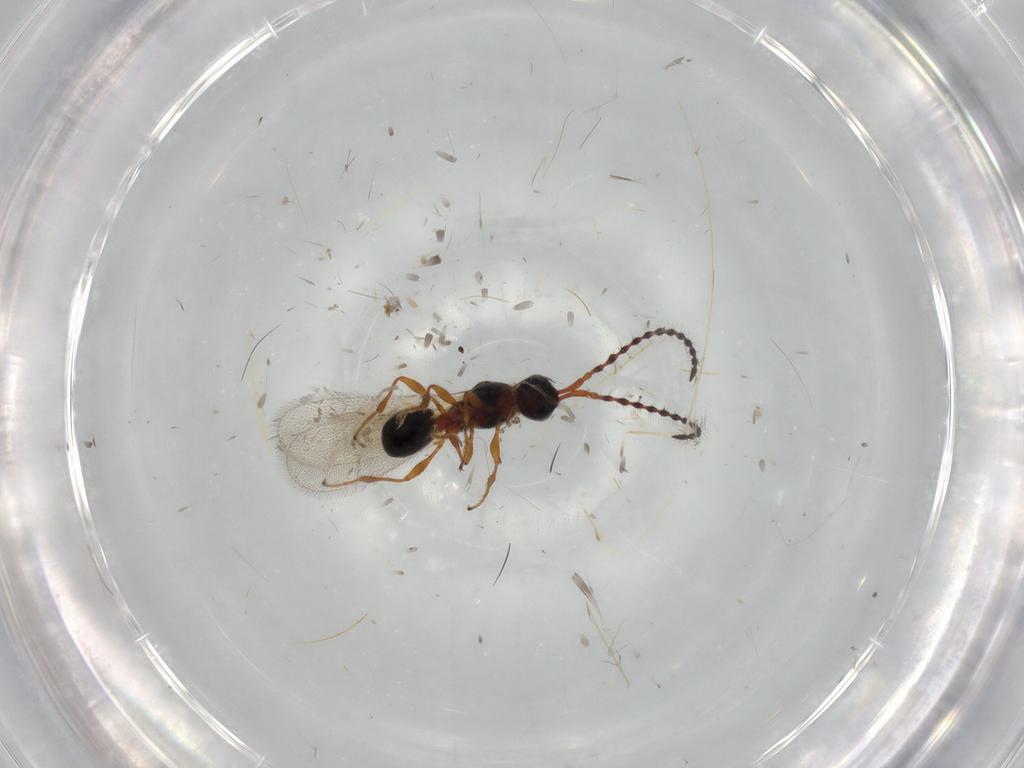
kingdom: Animalia
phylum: Arthropoda
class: Insecta
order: Hymenoptera
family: Diapriidae
